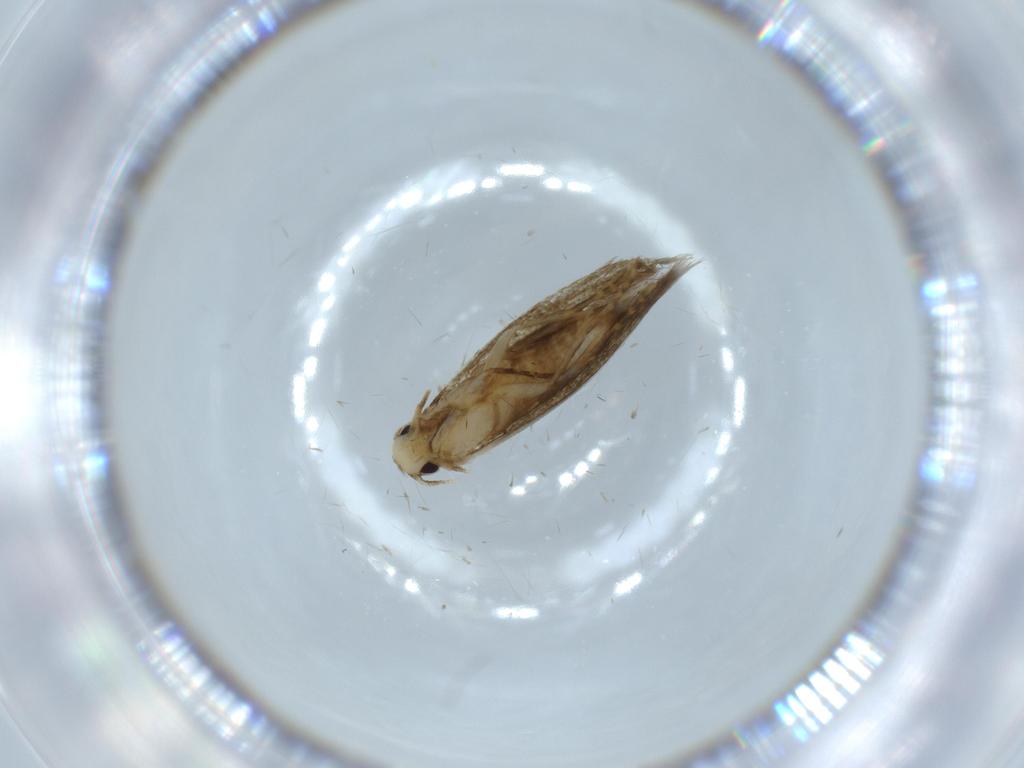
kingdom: Animalia
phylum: Arthropoda
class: Insecta
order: Lepidoptera
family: Tineidae
